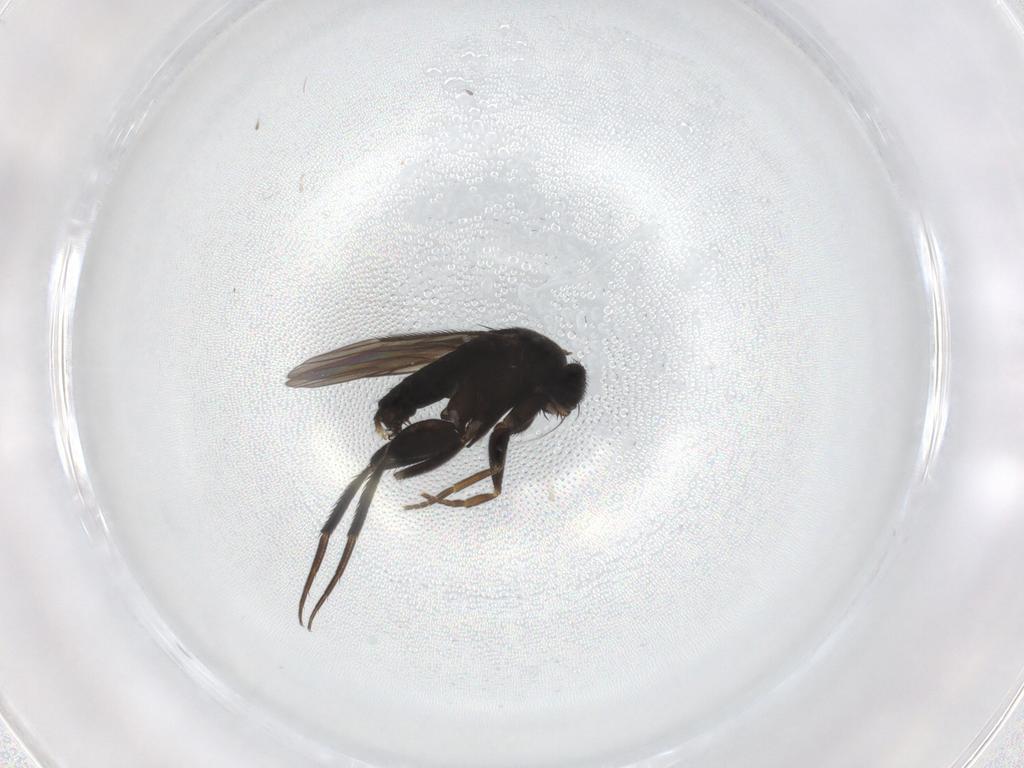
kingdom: Animalia
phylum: Arthropoda
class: Insecta
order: Diptera
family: Phoridae
